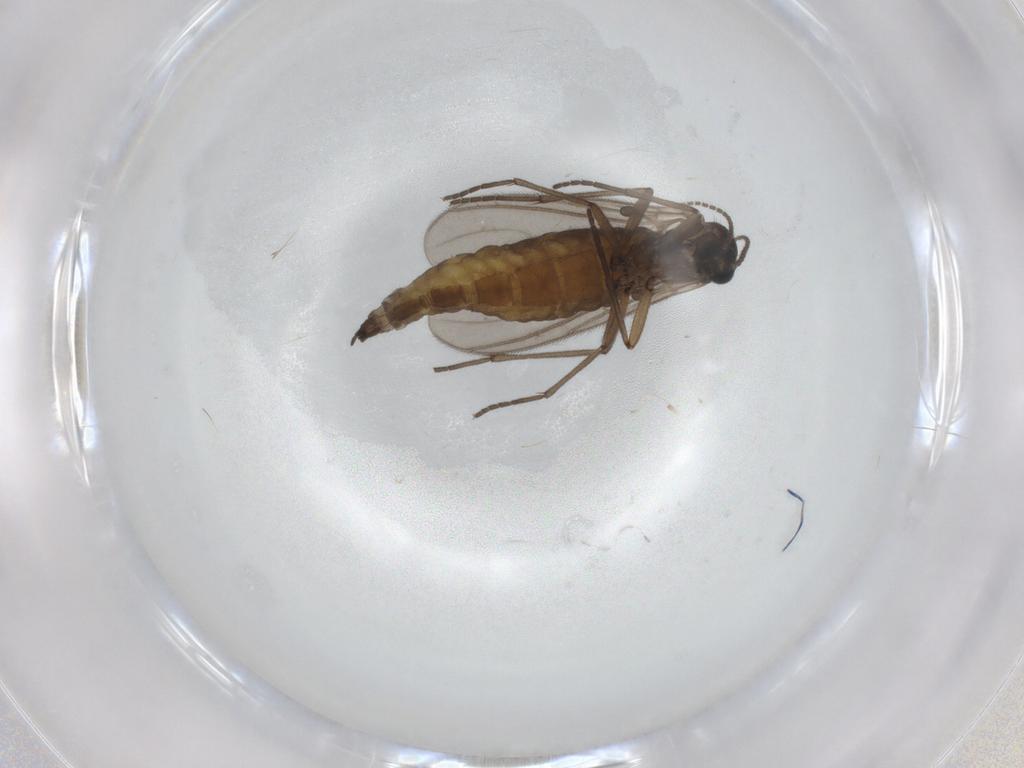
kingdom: Animalia
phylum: Arthropoda
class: Insecta
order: Diptera
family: Sciaridae
